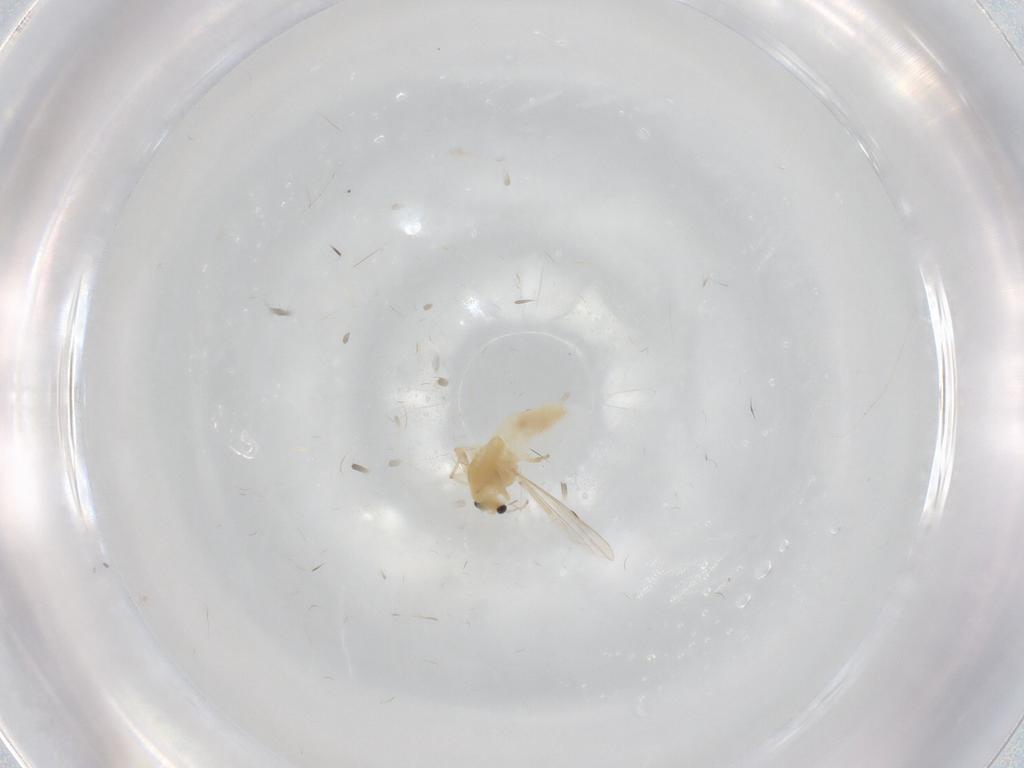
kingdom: Animalia
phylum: Arthropoda
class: Insecta
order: Diptera
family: Chironomidae
